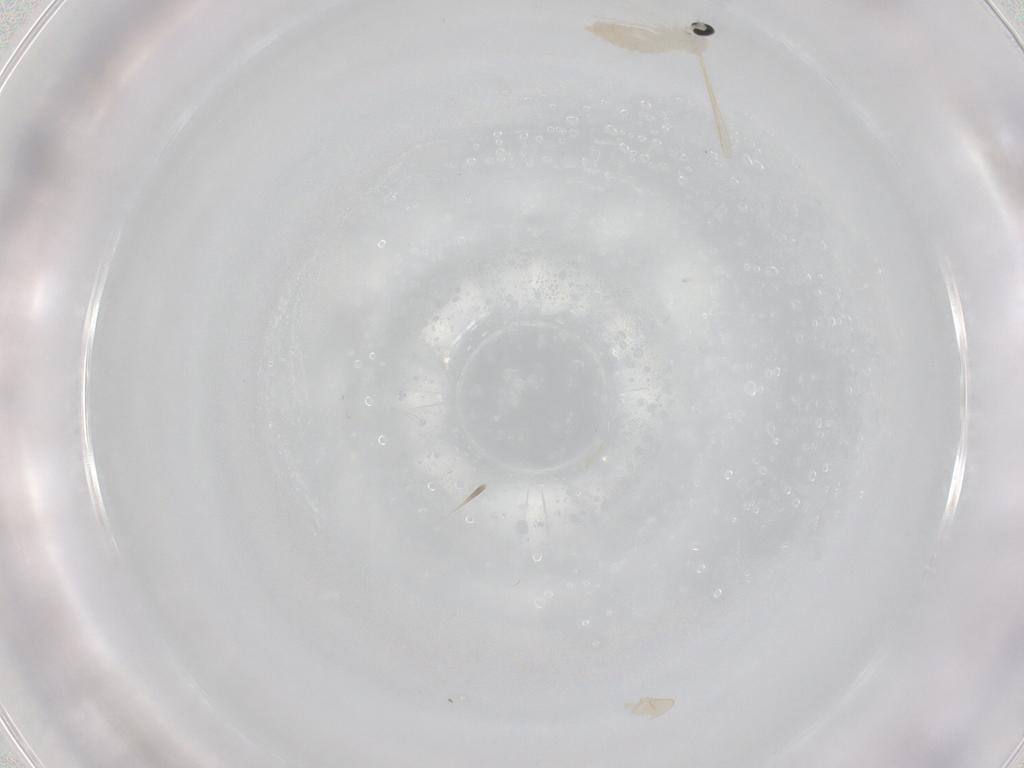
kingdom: Animalia
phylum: Arthropoda
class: Insecta
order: Diptera
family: Cecidomyiidae
